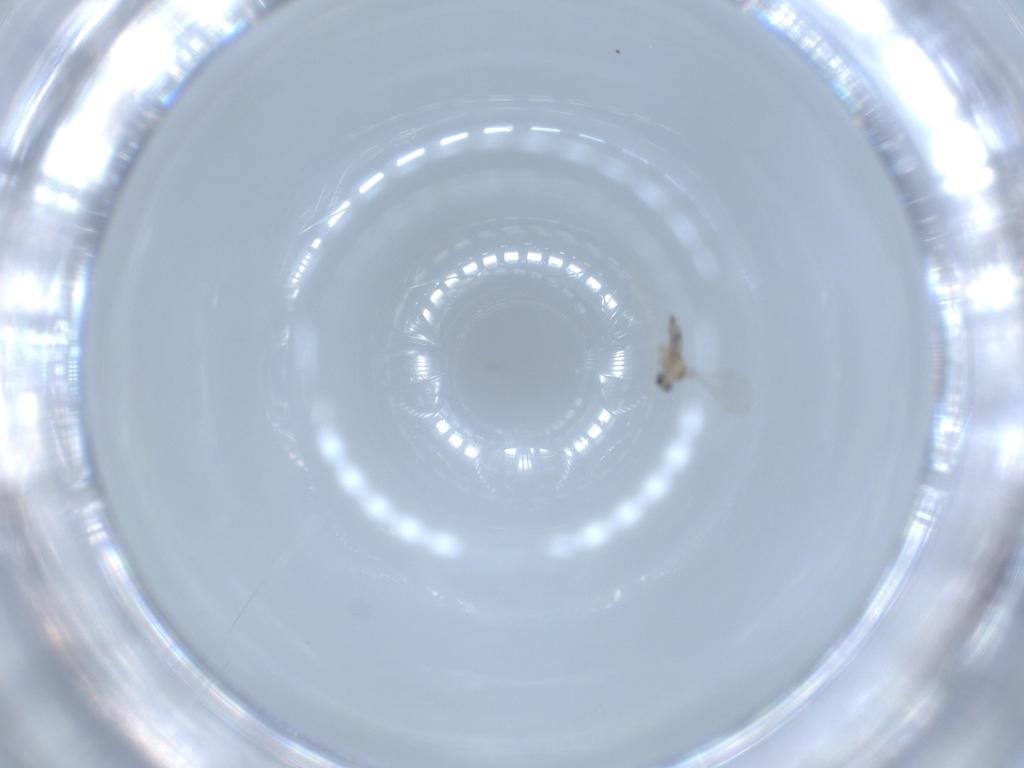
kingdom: Animalia
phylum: Arthropoda
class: Insecta
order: Diptera
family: Cecidomyiidae
